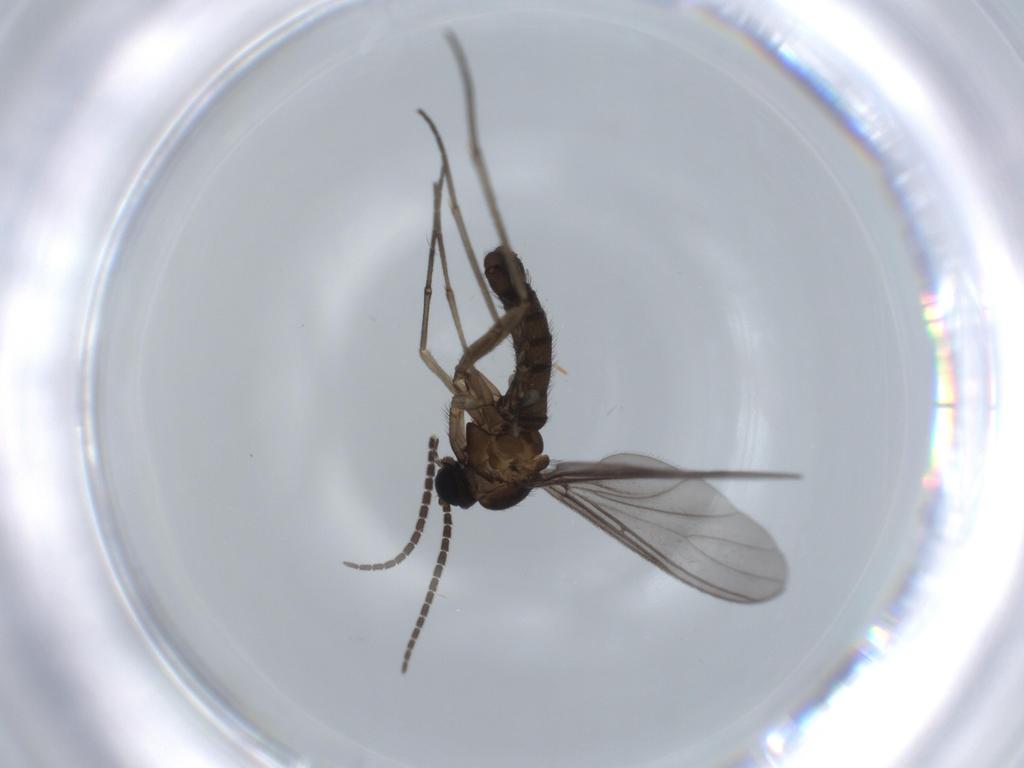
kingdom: Animalia
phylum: Arthropoda
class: Insecta
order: Diptera
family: Sciaridae
